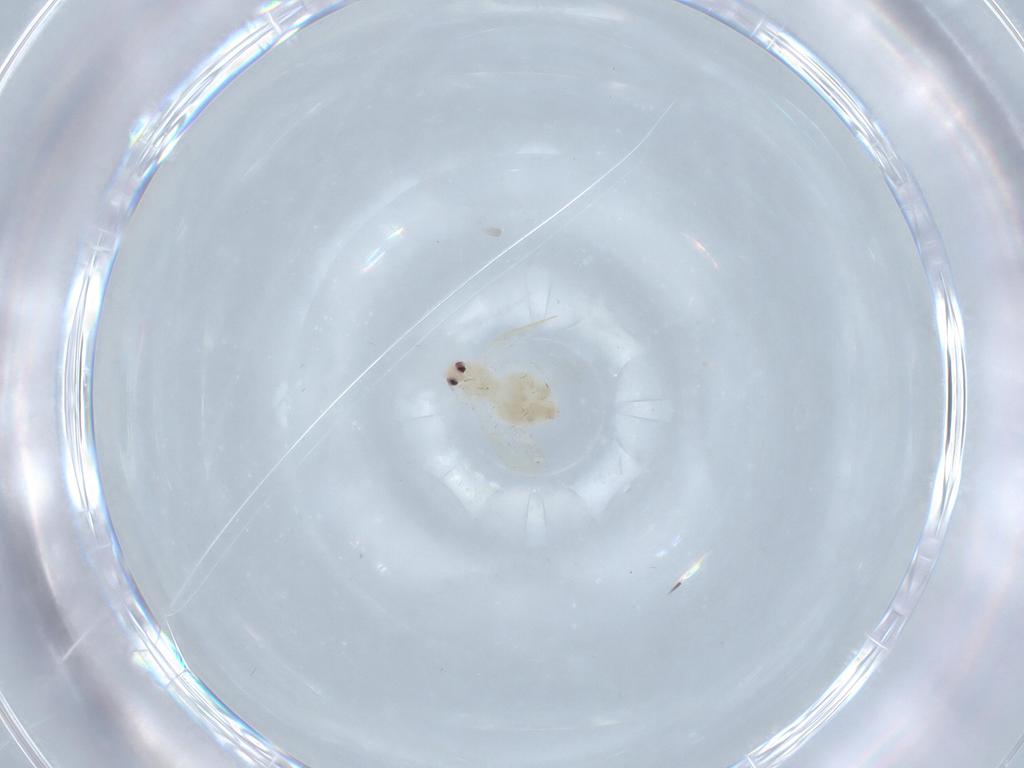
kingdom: Animalia
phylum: Arthropoda
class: Insecta
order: Hemiptera
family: Aleyrodidae
